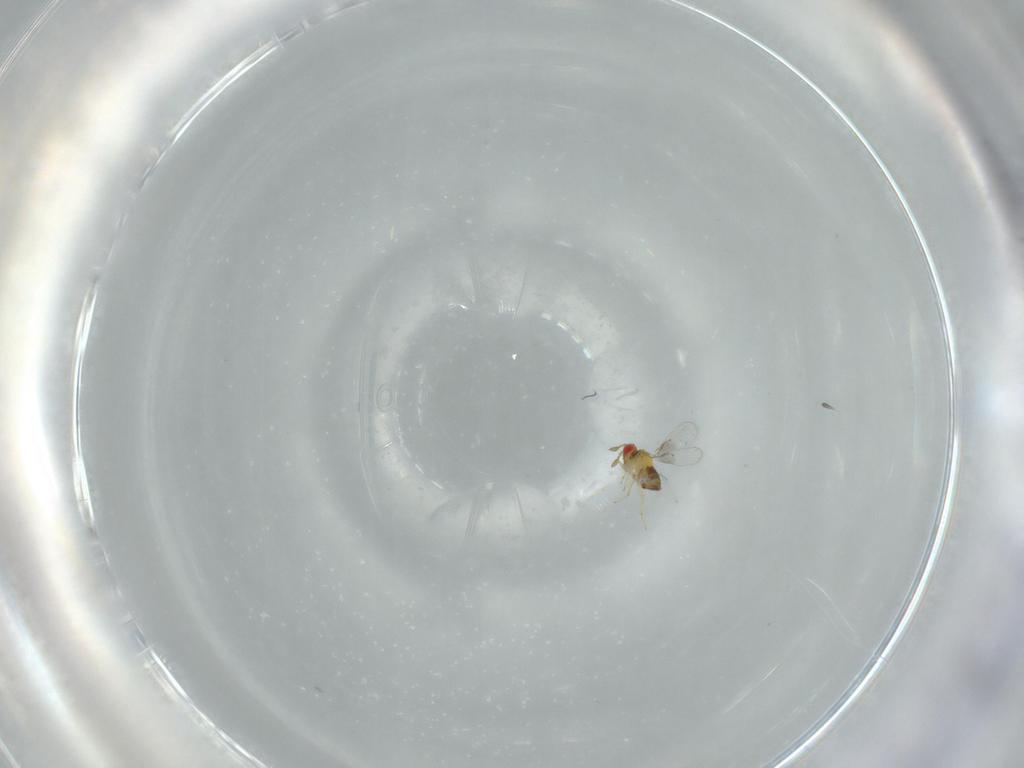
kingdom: Animalia
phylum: Arthropoda
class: Insecta
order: Hymenoptera
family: Trichogrammatidae
